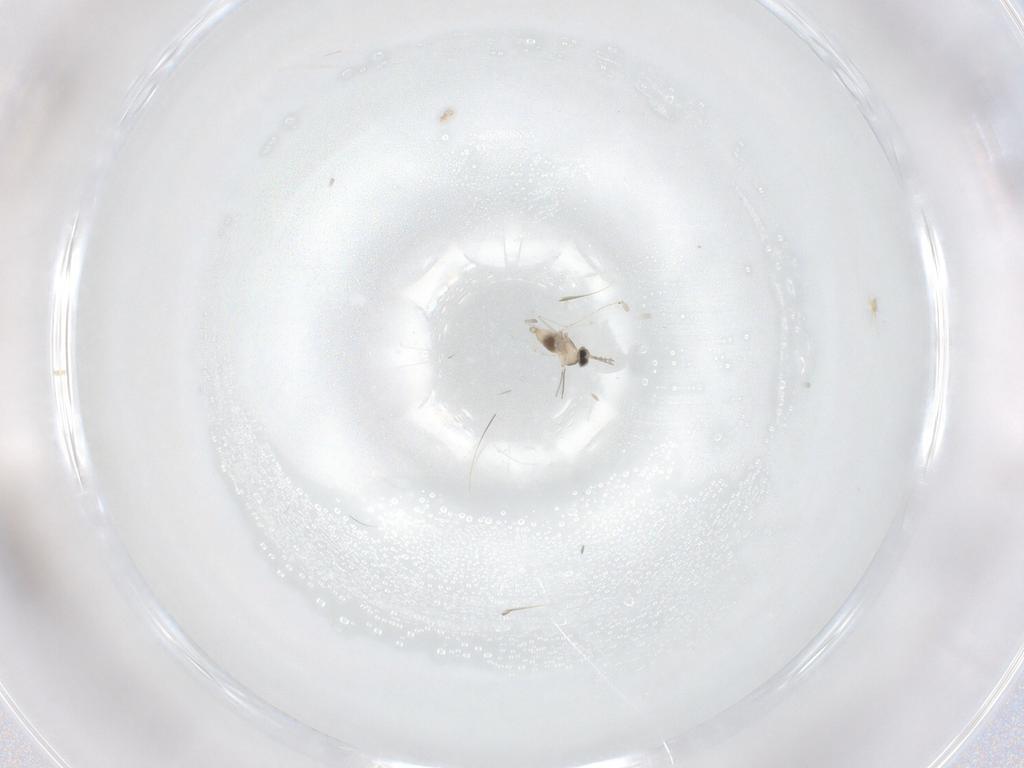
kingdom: Animalia
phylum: Arthropoda
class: Insecta
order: Diptera
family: Cecidomyiidae
